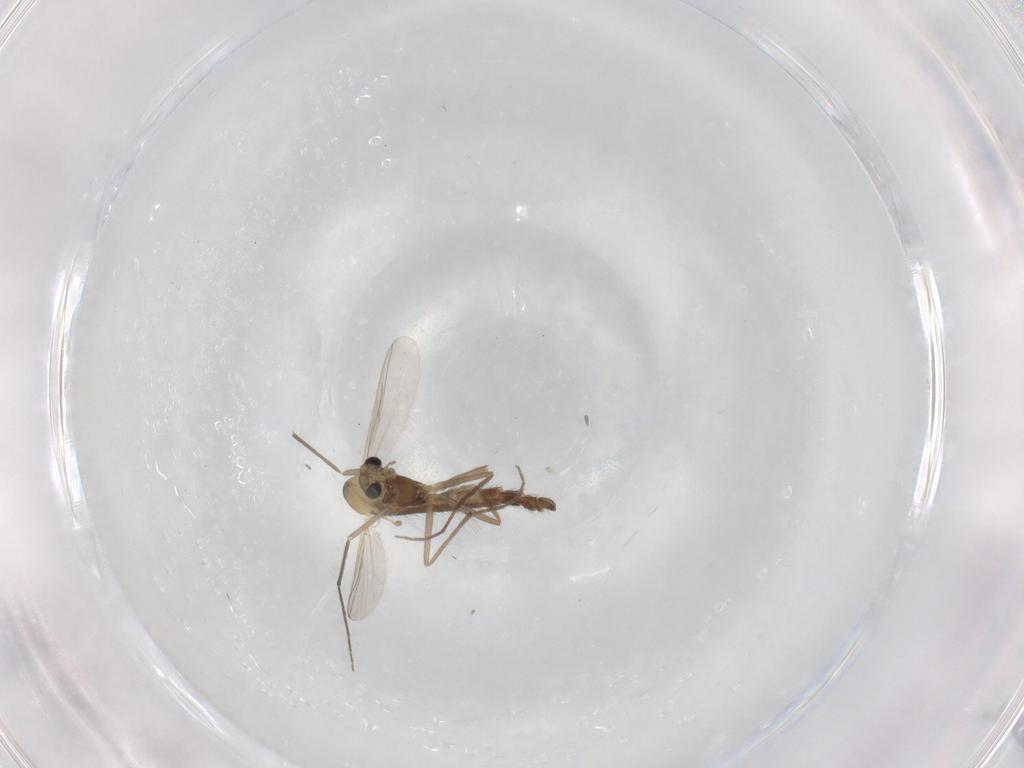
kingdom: Animalia
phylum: Arthropoda
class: Insecta
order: Diptera
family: Chironomidae
